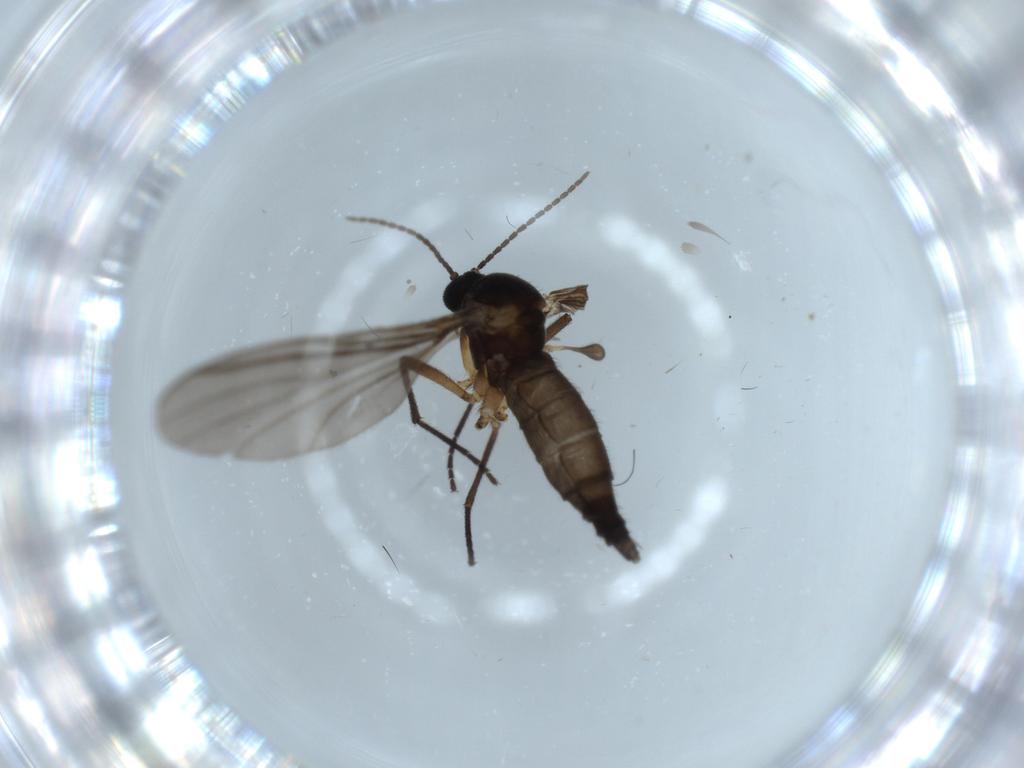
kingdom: Animalia
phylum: Arthropoda
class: Insecta
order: Diptera
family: Sciaridae
